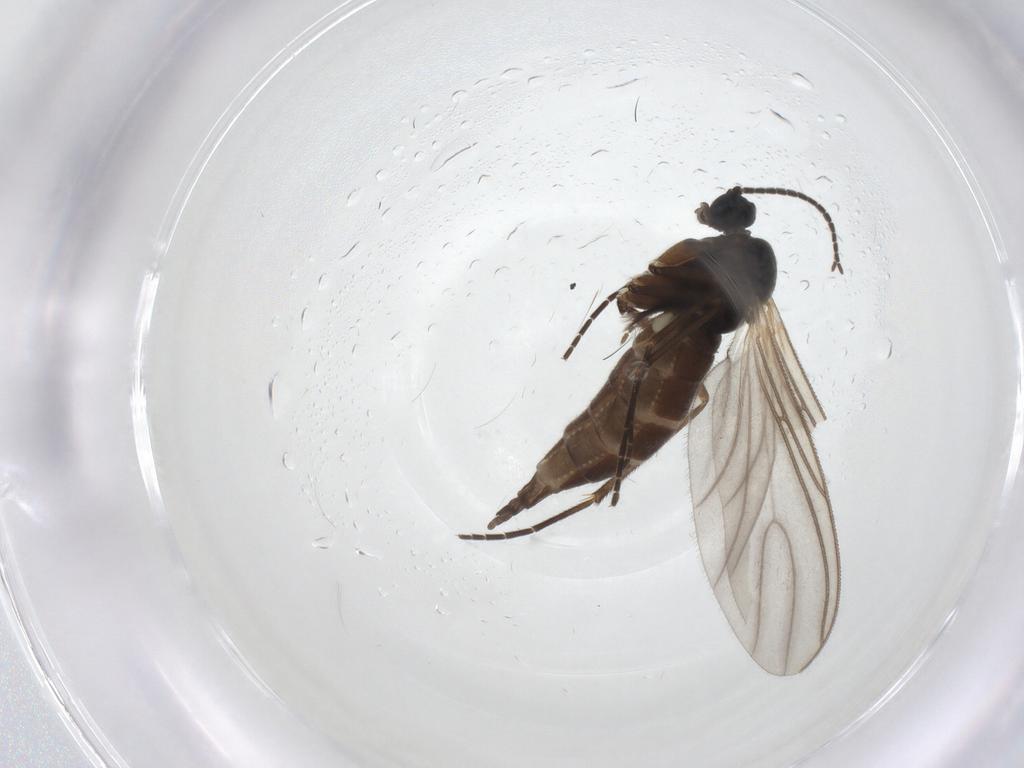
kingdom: Animalia
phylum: Arthropoda
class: Insecta
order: Diptera
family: Sciaridae
